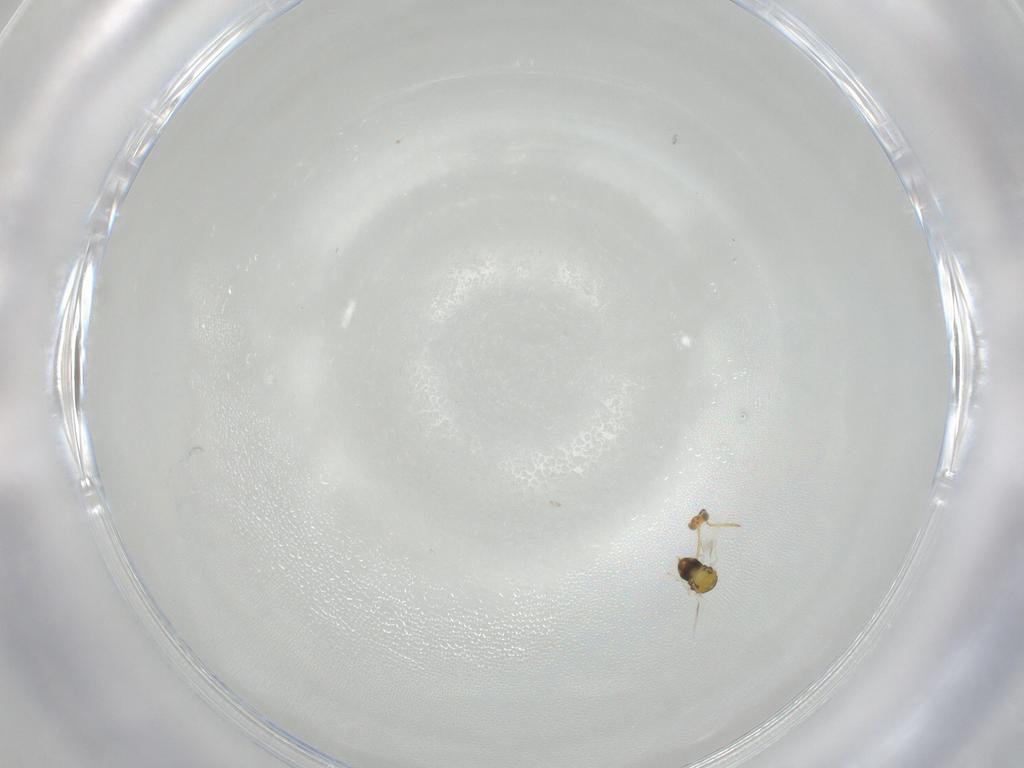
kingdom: Animalia
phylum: Arthropoda
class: Insecta
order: Hymenoptera
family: Aphelinidae
